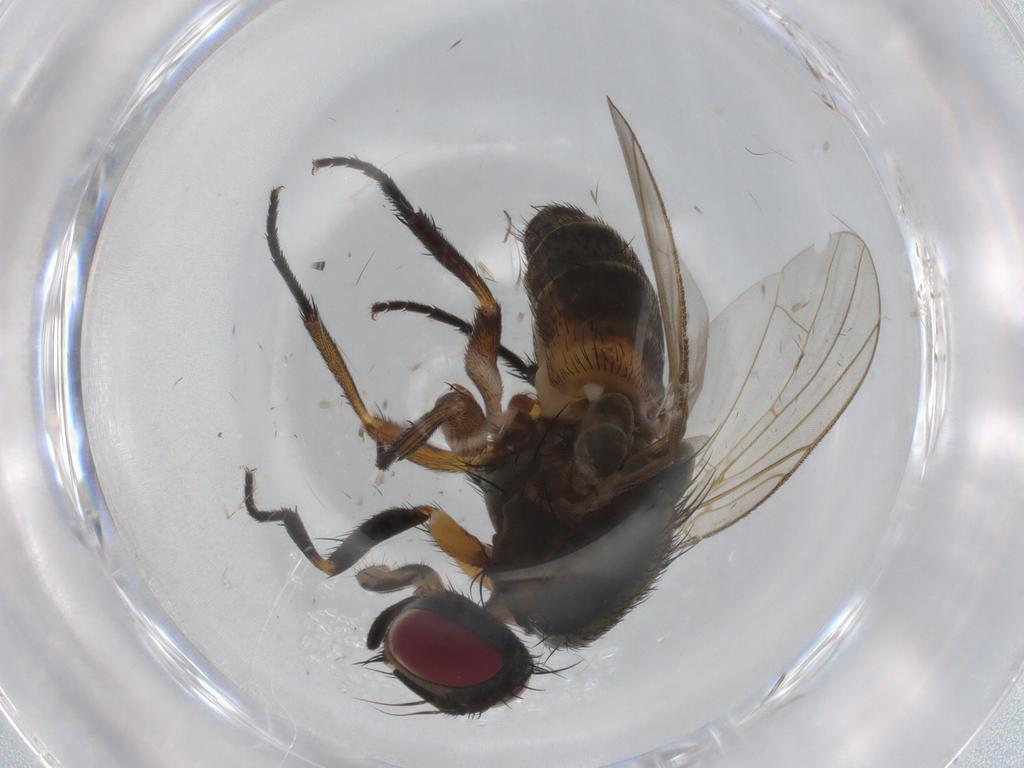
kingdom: Animalia
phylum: Arthropoda
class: Insecta
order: Diptera
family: Muscidae
